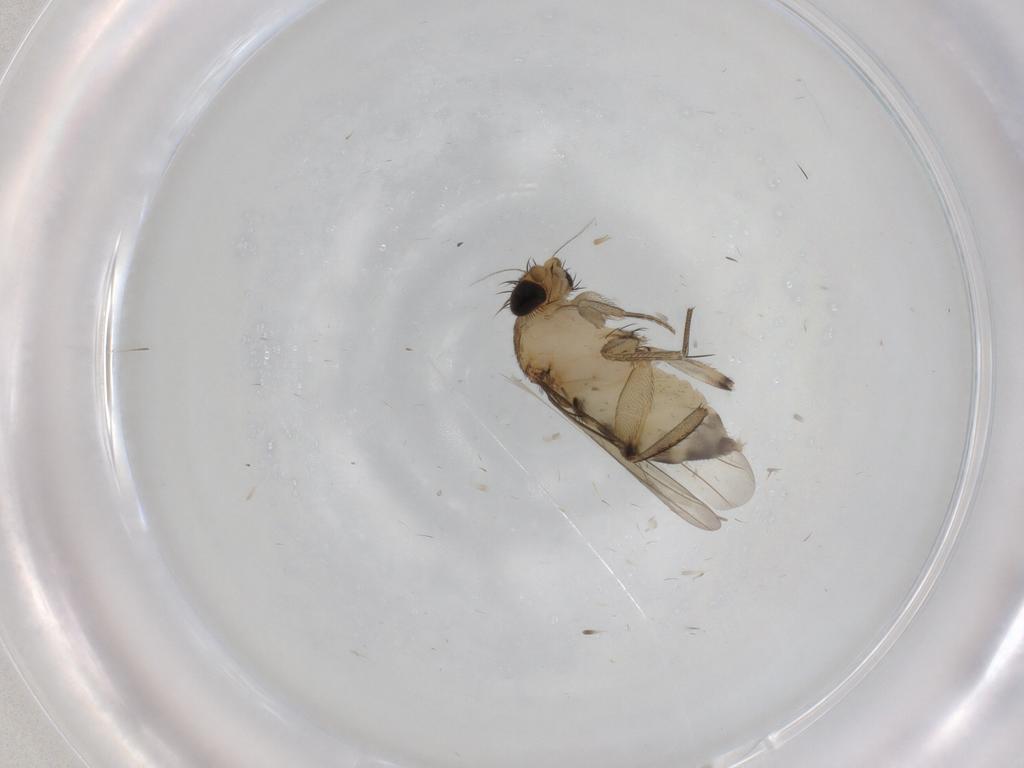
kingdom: Animalia
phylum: Arthropoda
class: Insecta
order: Diptera
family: Phoridae
